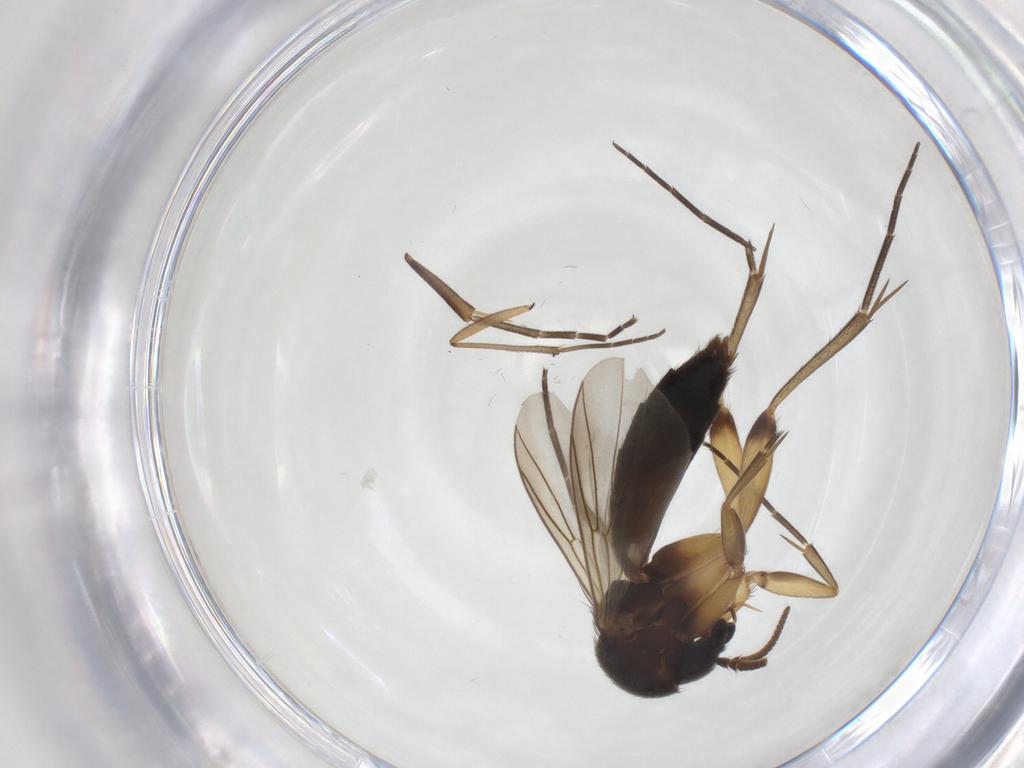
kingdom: Animalia
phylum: Arthropoda
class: Insecta
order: Diptera
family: Mycetophilidae
